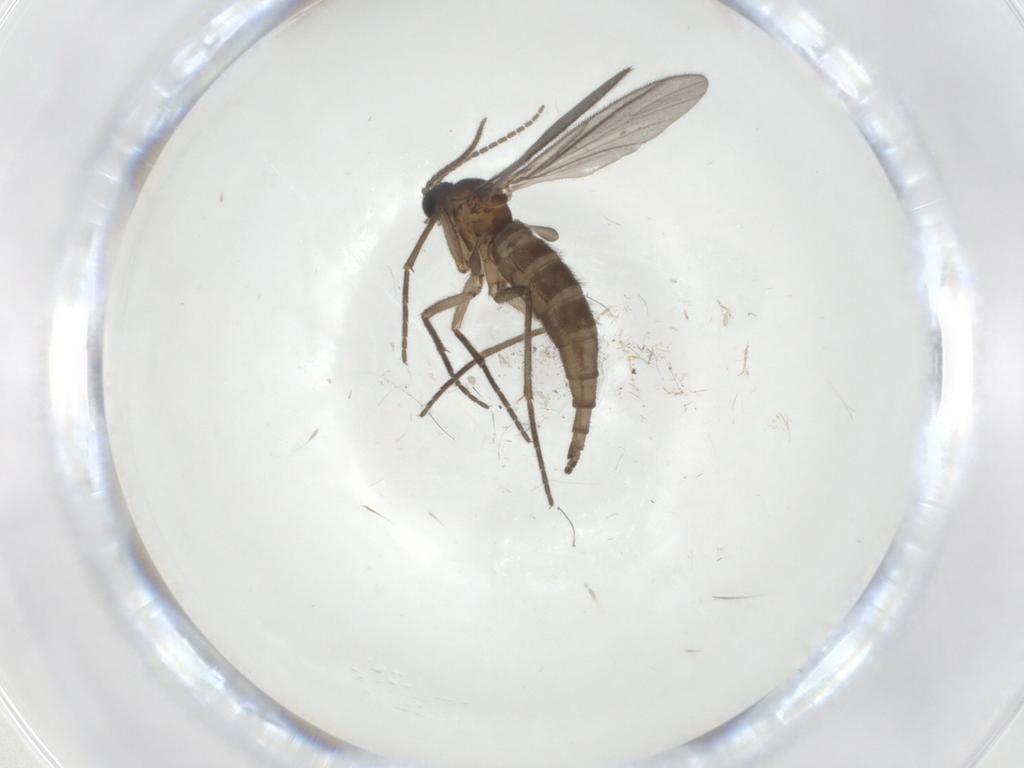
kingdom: Animalia
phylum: Arthropoda
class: Insecta
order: Diptera
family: Sciaridae
